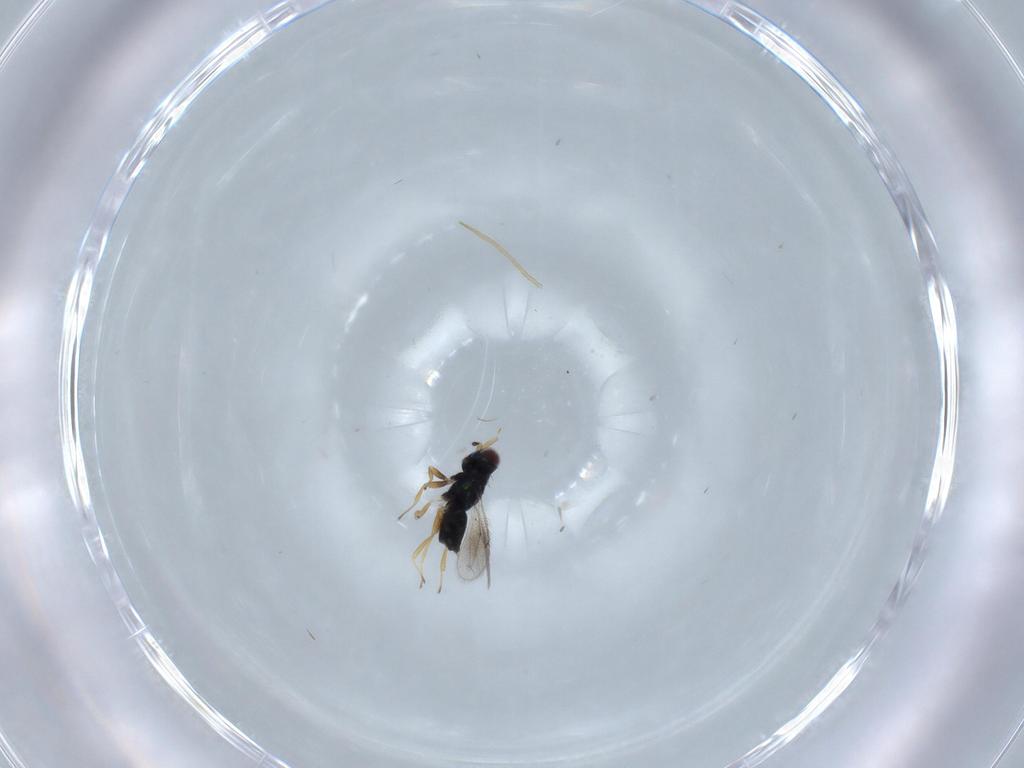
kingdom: Animalia
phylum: Arthropoda
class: Insecta
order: Hymenoptera
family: Eulophidae
